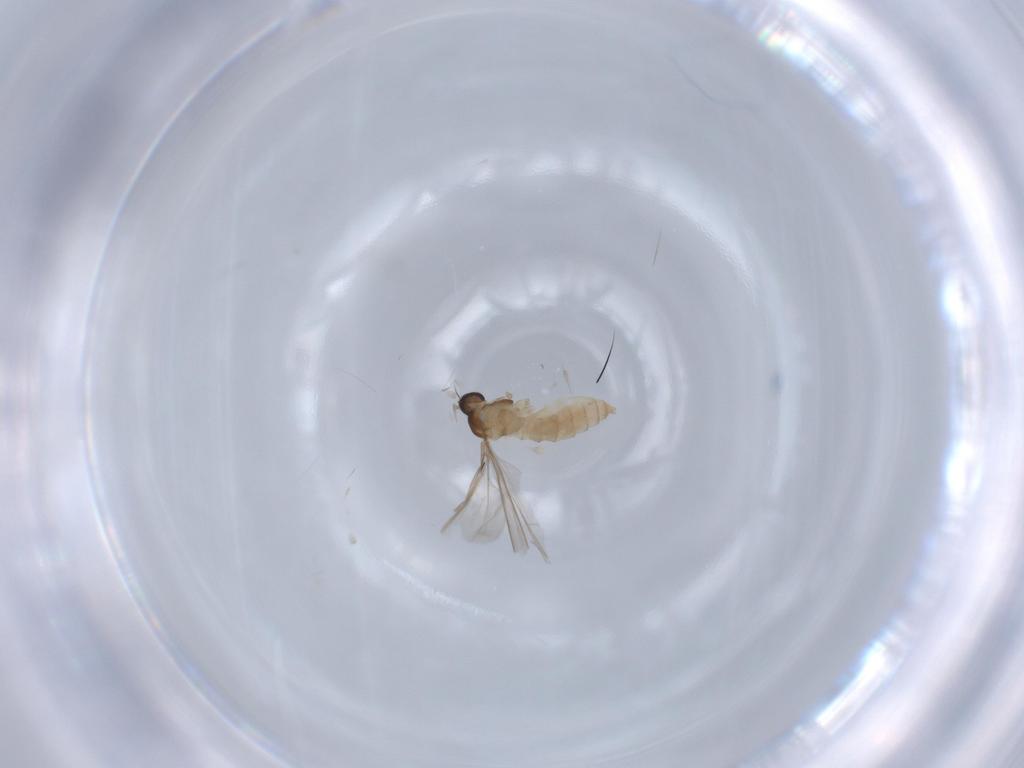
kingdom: Animalia
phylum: Arthropoda
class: Insecta
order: Diptera
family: Cecidomyiidae
